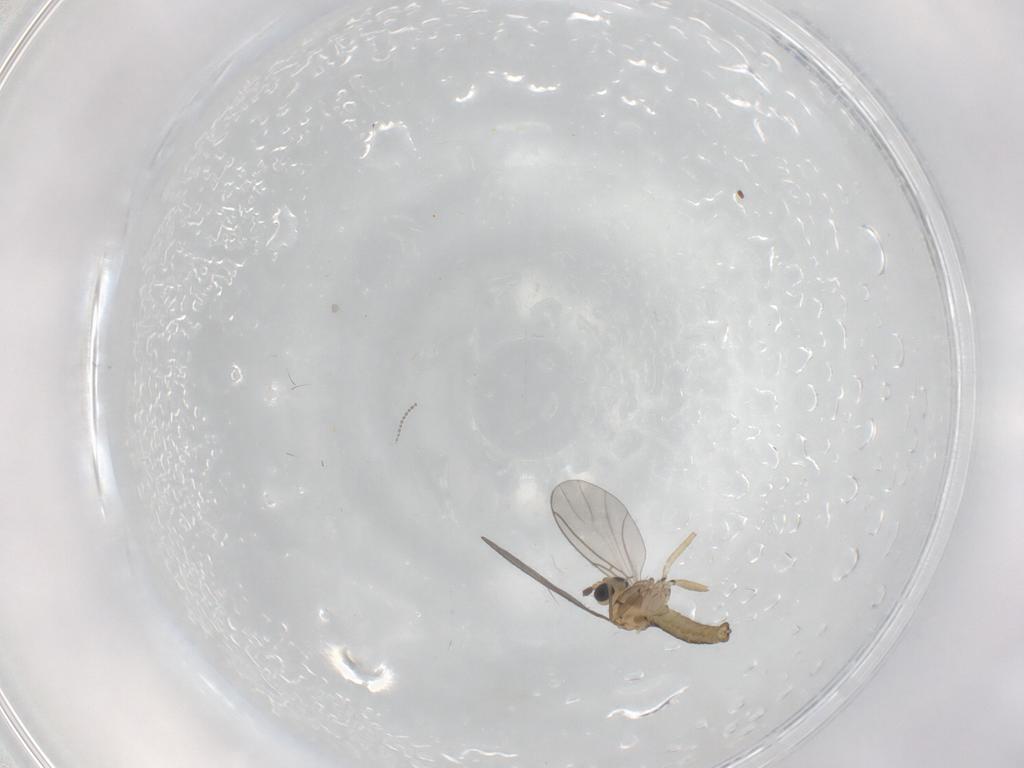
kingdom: Animalia
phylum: Arthropoda
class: Insecta
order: Diptera
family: Sciaridae
